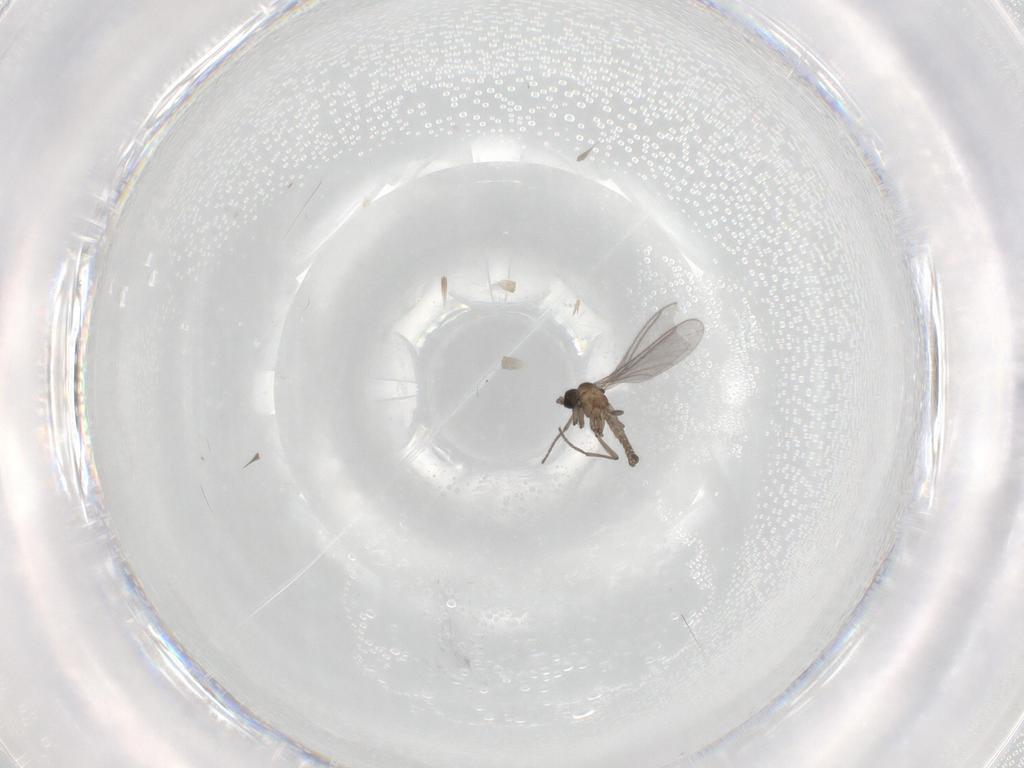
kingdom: Animalia
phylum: Arthropoda
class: Insecta
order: Diptera
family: Sciaridae
